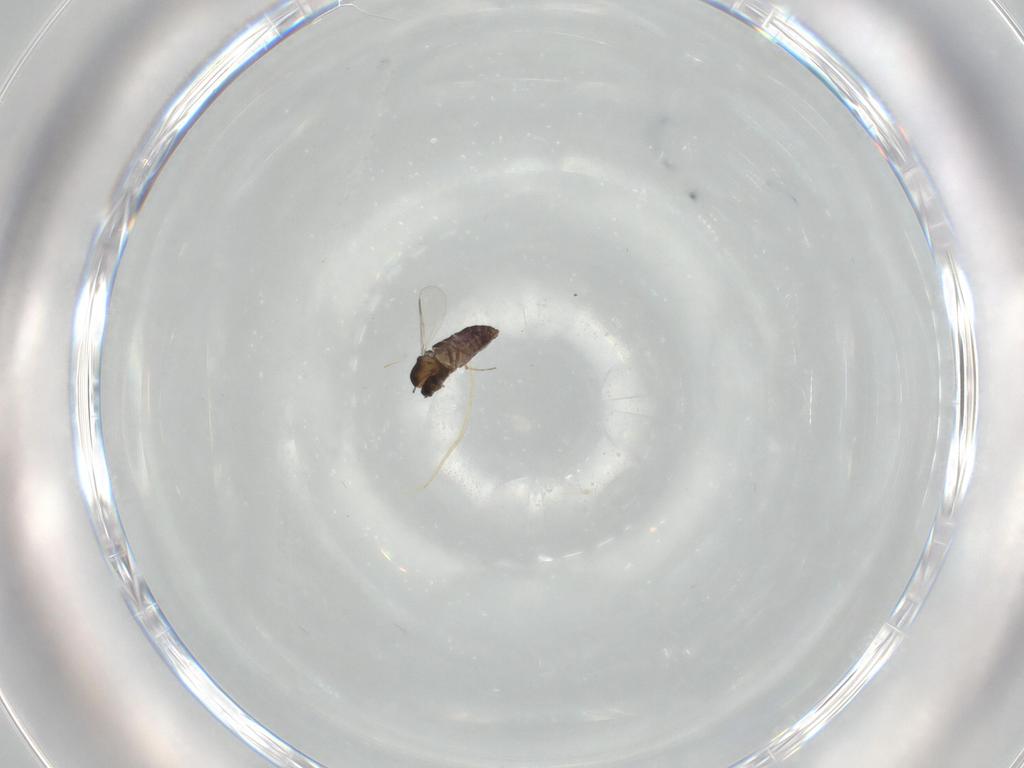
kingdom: Animalia
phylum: Arthropoda
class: Insecta
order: Diptera
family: Chironomidae
